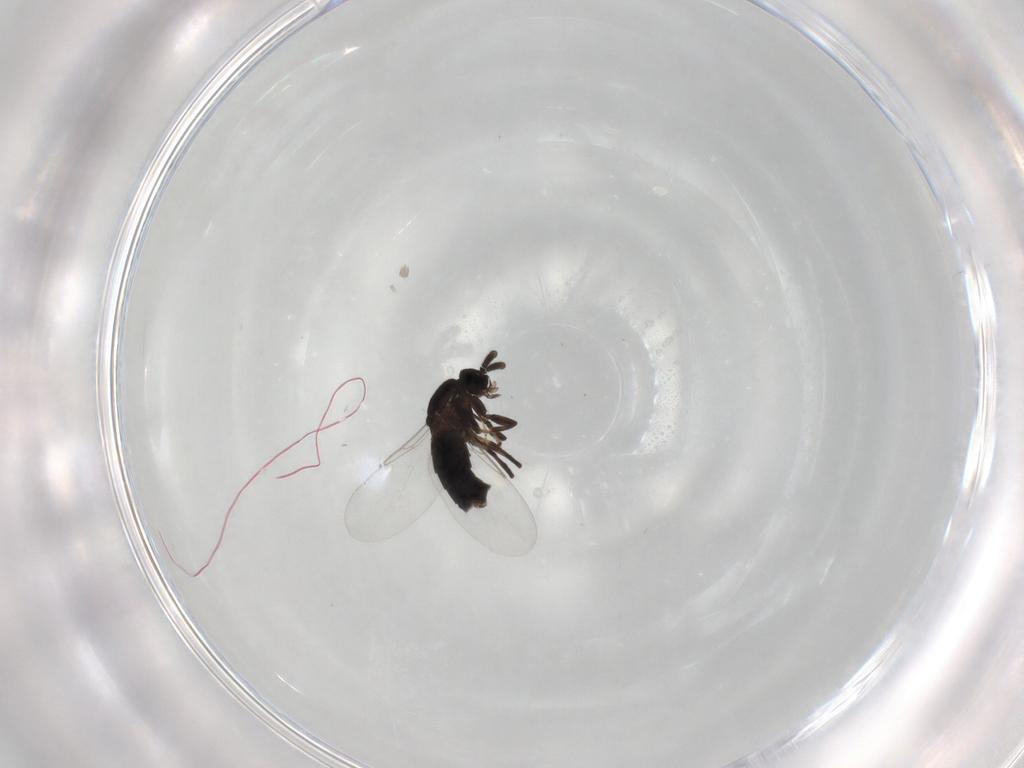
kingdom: Animalia
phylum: Arthropoda
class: Insecta
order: Diptera
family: Scatopsidae
